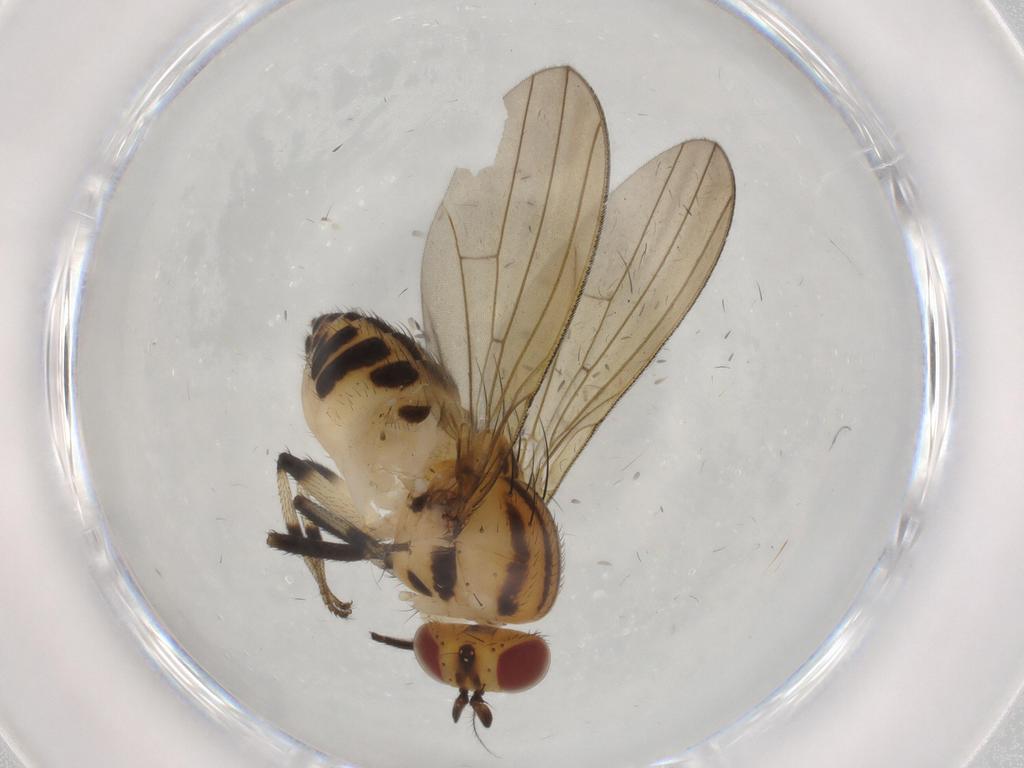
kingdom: Animalia
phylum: Arthropoda
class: Insecta
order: Diptera
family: Lauxaniidae
